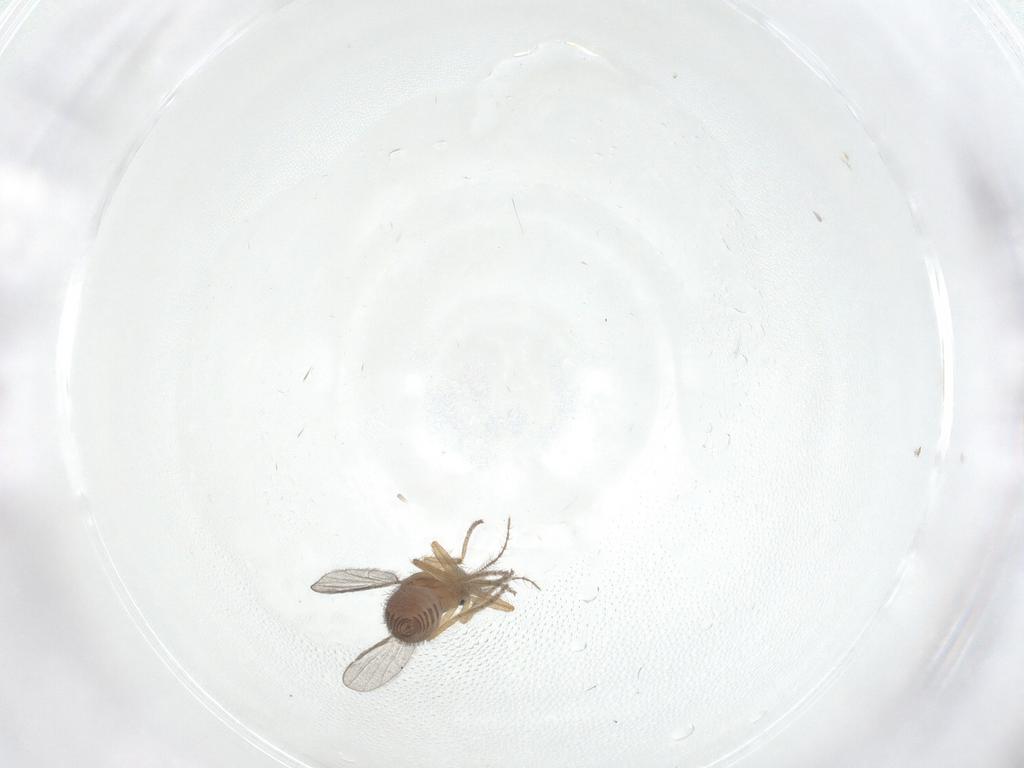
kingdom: Animalia
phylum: Arthropoda
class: Insecta
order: Diptera
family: Ceratopogonidae
